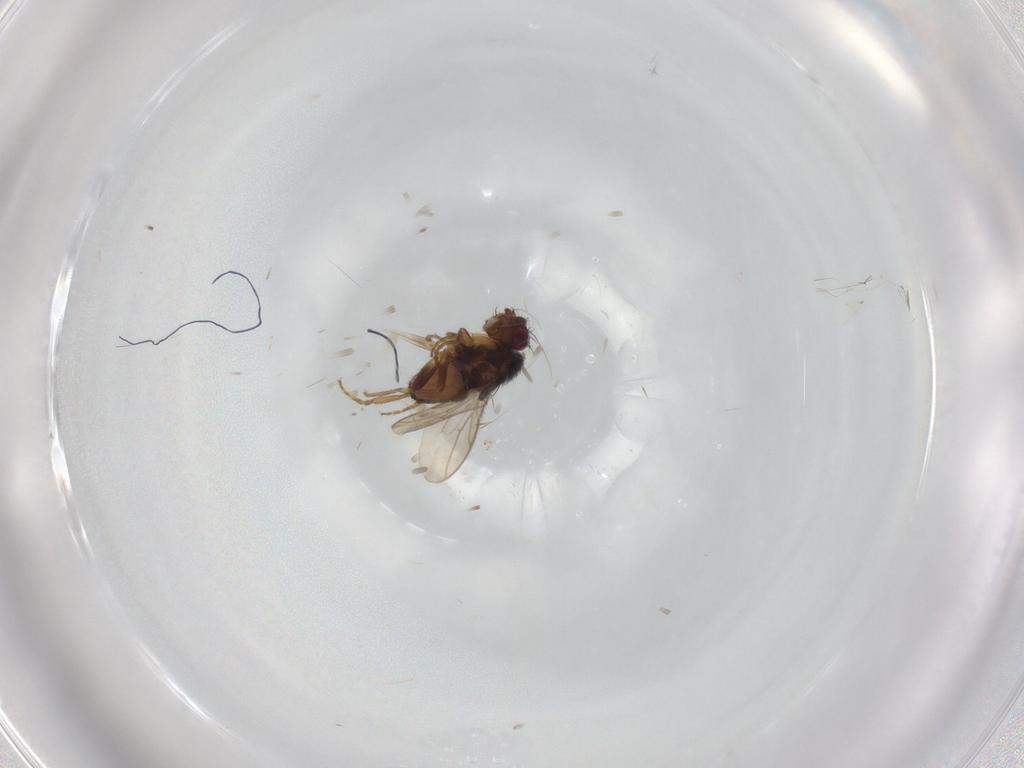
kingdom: Animalia
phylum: Arthropoda
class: Insecta
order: Diptera
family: Sphaeroceridae
